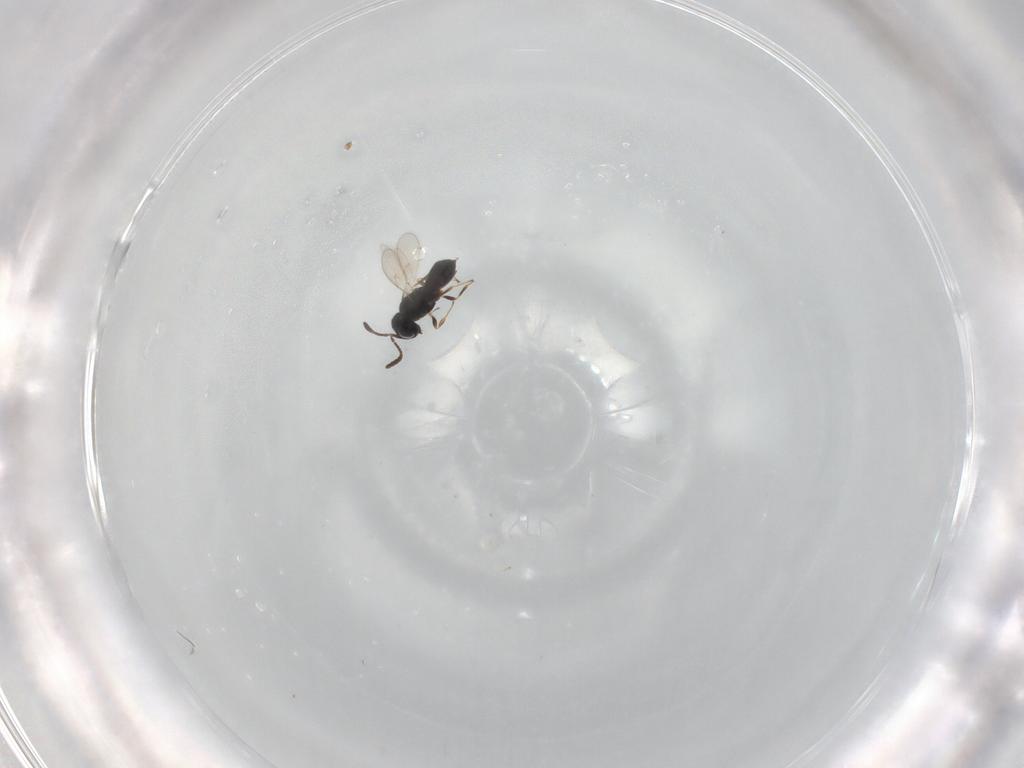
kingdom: Animalia
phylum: Arthropoda
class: Insecta
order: Hymenoptera
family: Scelionidae
